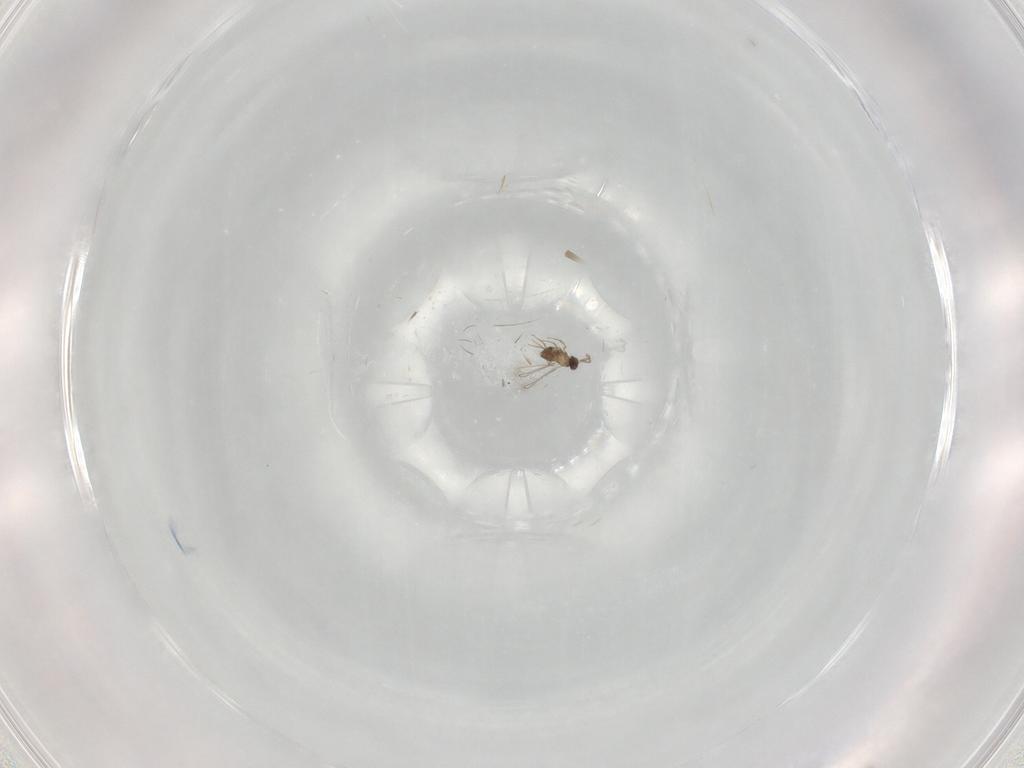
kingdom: Animalia
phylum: Arthropoda
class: Insecta
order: Hymenoptera
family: Mymaridae
